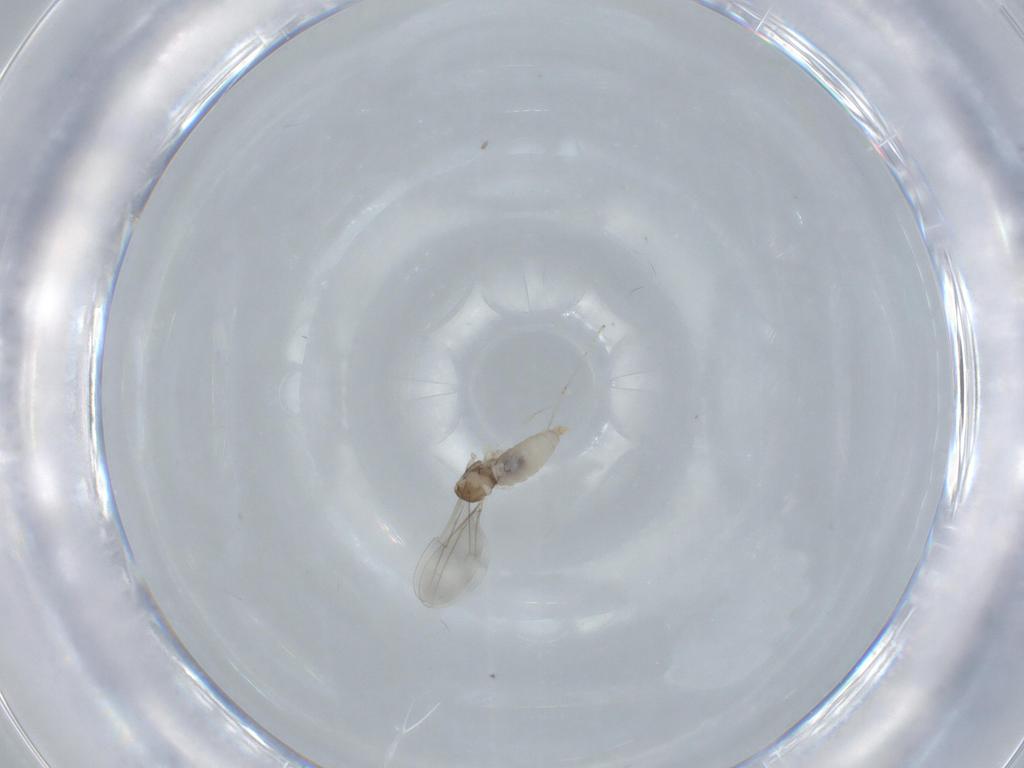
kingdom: Animalia
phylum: Arthropoda
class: Insecta
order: Diptera
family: Cecidomyiidae
